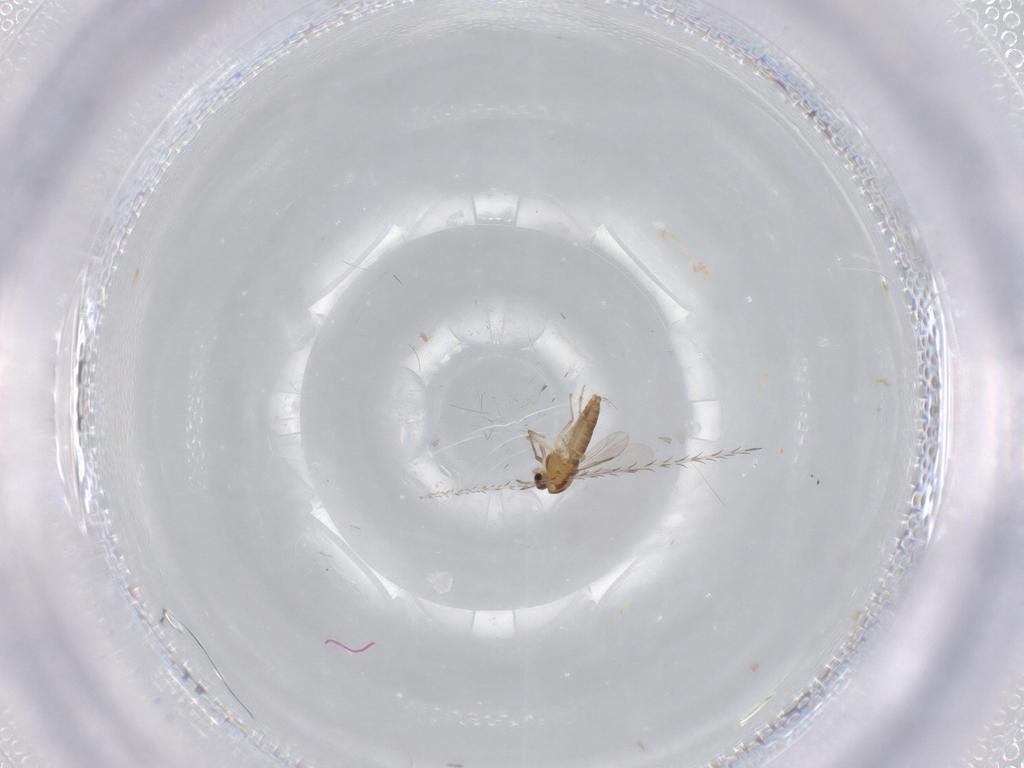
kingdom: Animalia
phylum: Arthropoda
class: Insecta
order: Diptera
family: Chironomidae
